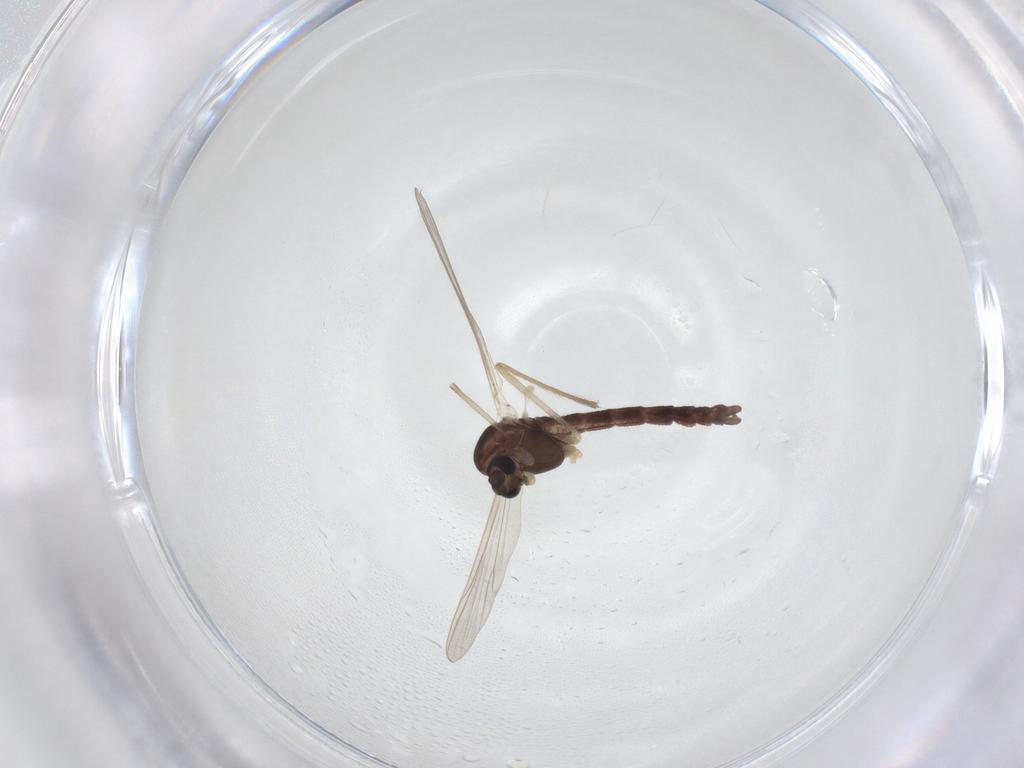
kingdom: Animalia
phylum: Arthropoda
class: Insecta
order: Diptera
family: Chironomidae
